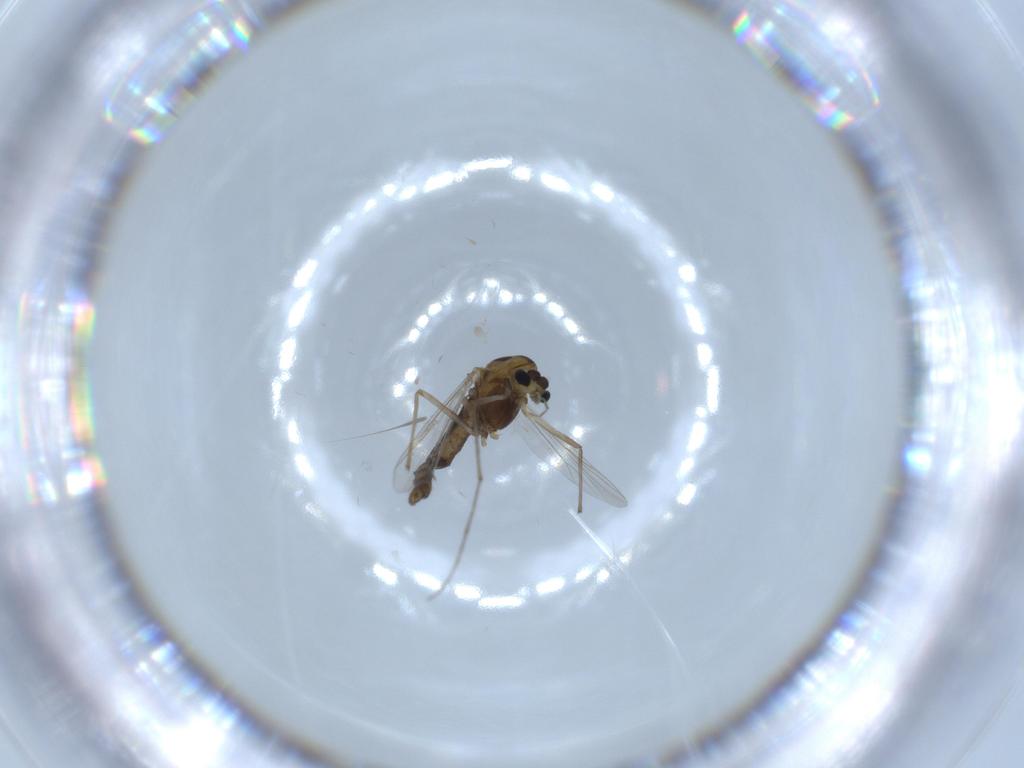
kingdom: Animalia
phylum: Arthropoda
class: Insecta
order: Diptera
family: Chironomidae
